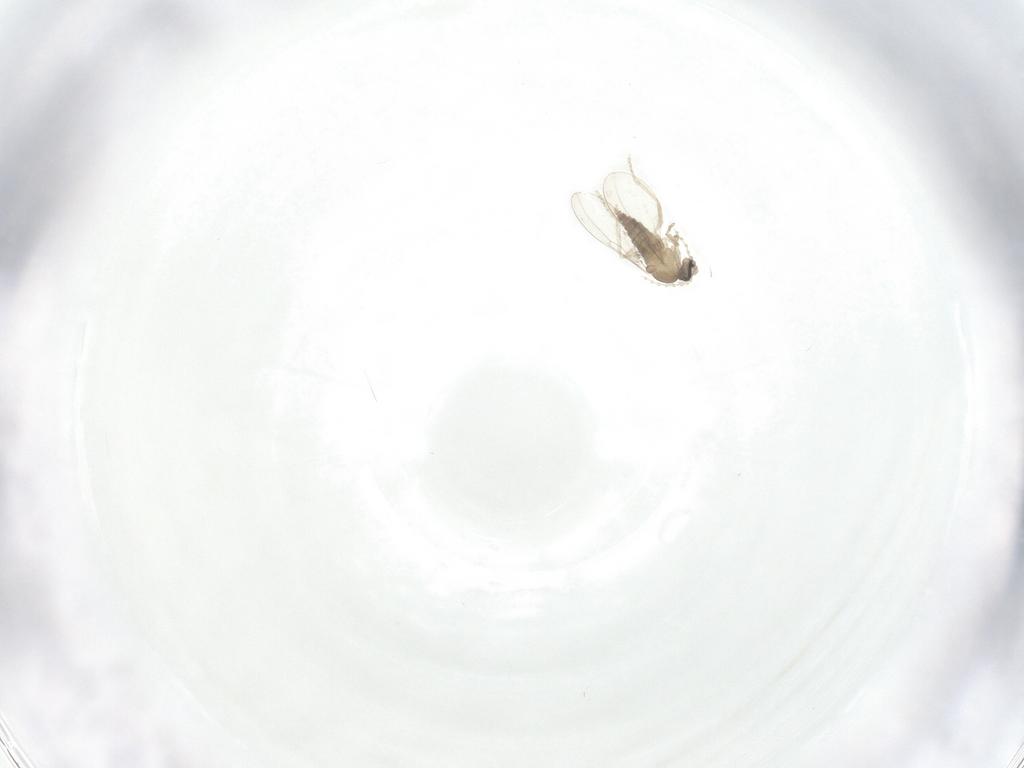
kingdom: Animalia
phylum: Arthropoda
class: Insecta
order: Diptera
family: Cecidomyiidae
